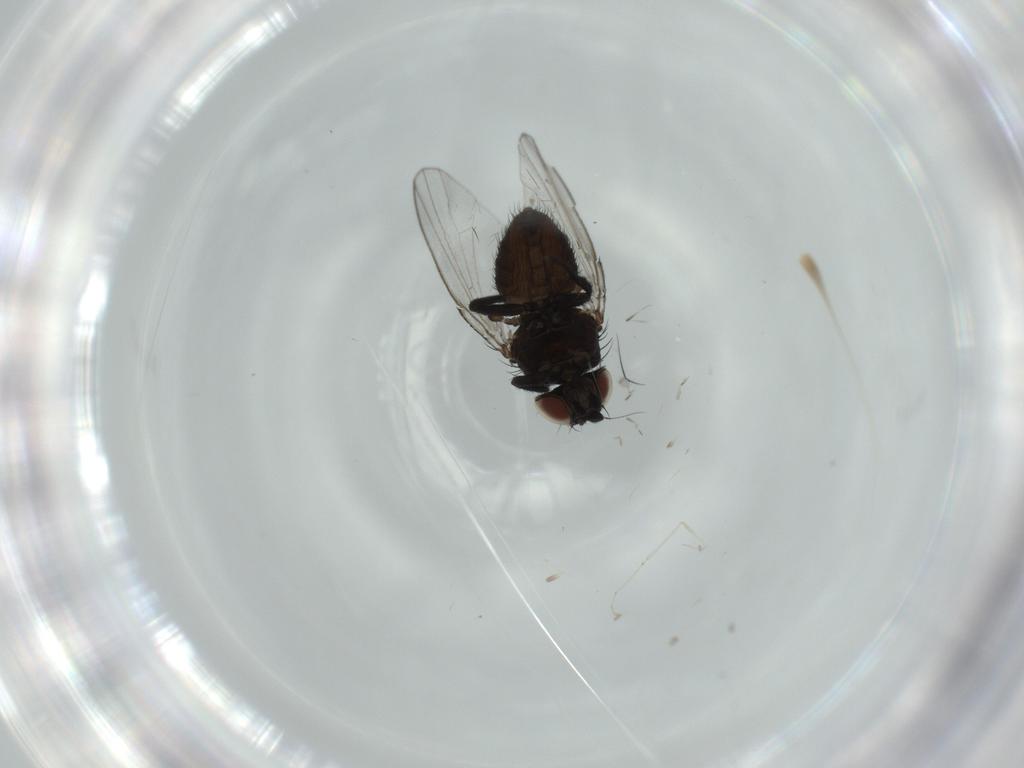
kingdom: Animalia
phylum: Arthropoda
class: Insecta
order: Diptera
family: Milichiidae
